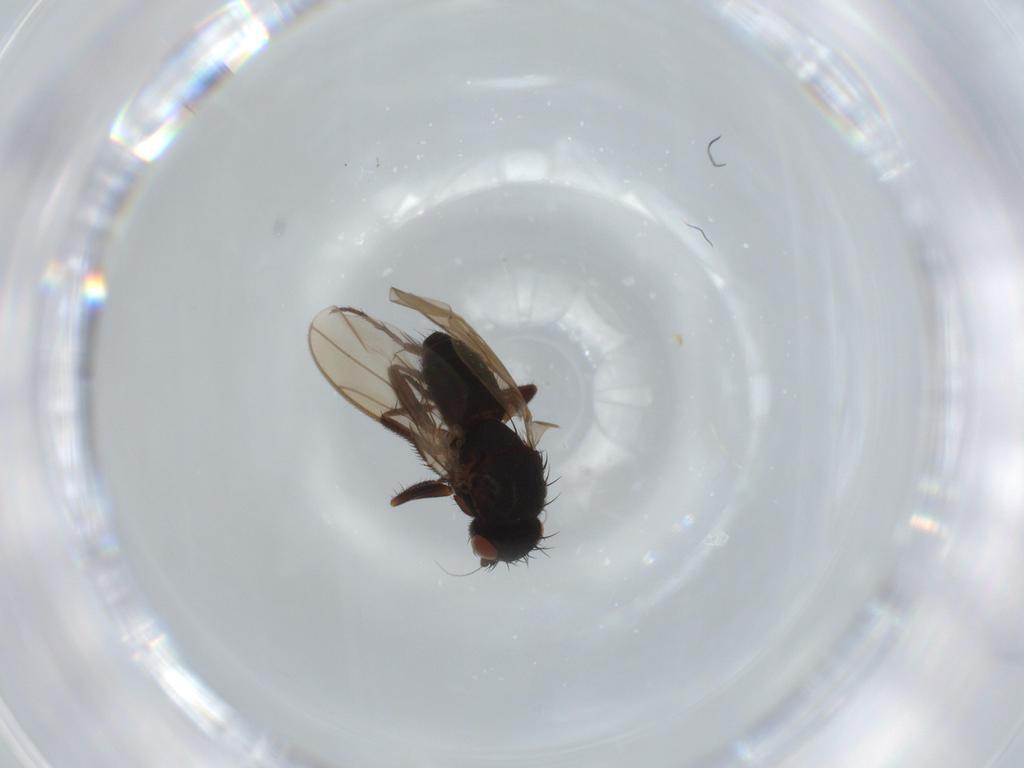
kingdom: Animalia
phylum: Arthropoda
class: Insecta
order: Diptera
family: Sphaeroceridae
